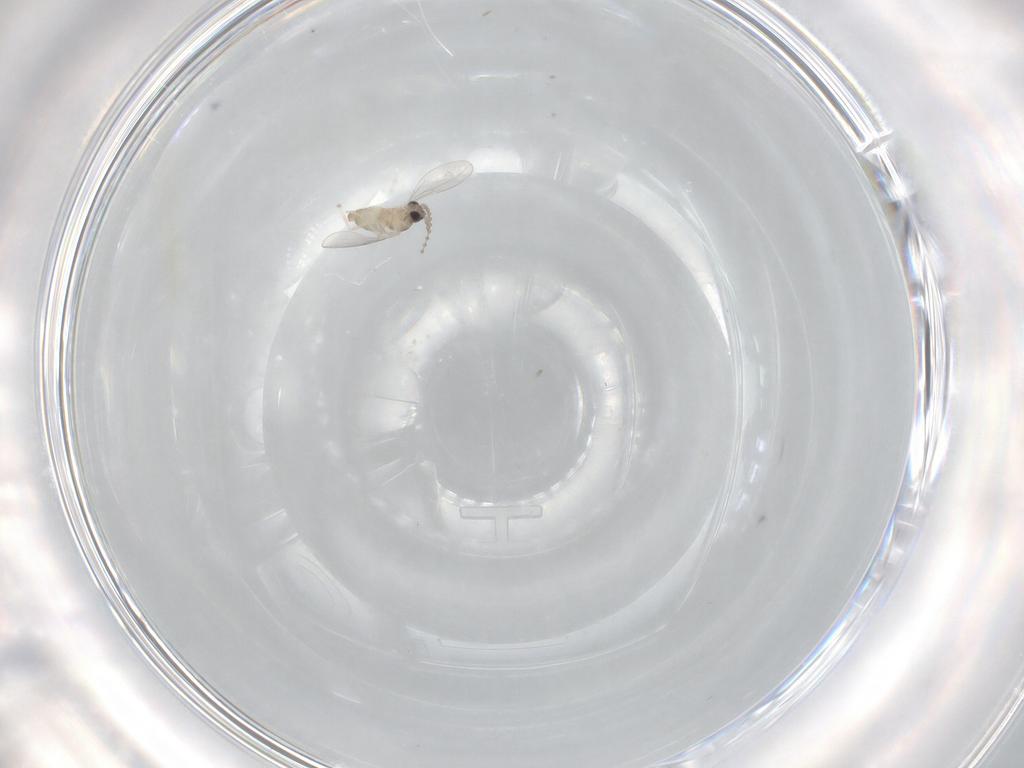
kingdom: Animalia
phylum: Arthropoda
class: Insecta
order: Diptera
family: Cecidomyiidae
